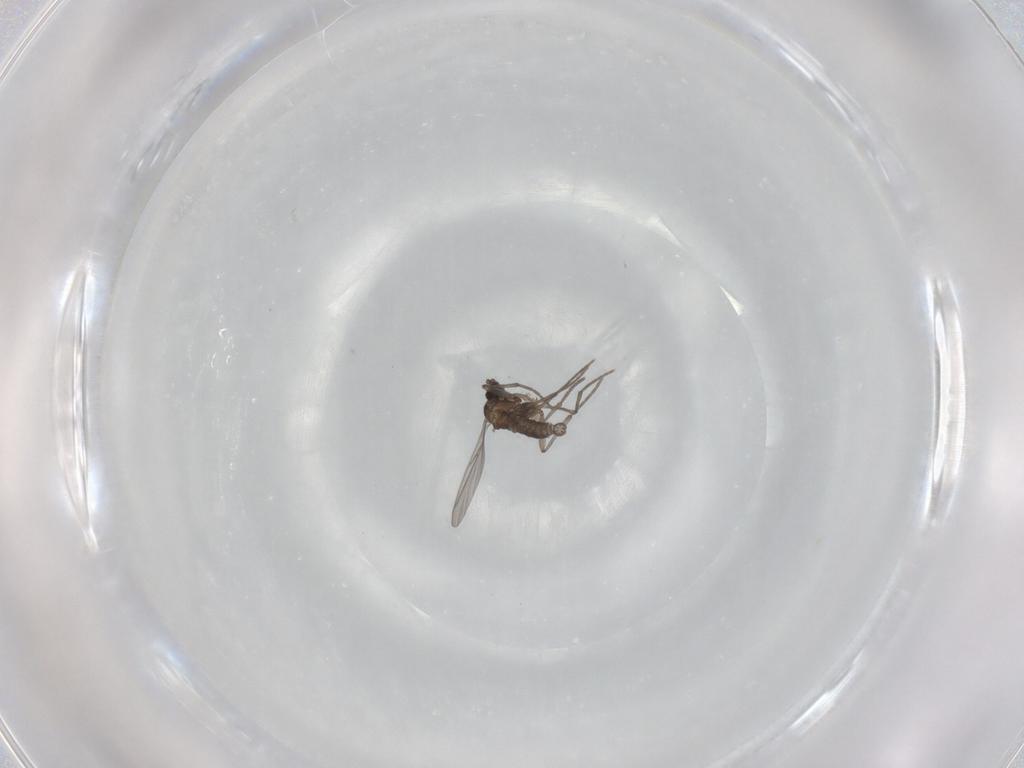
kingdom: Animalia
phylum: Arthropoda
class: Insecta
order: Diptera
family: Sciaridae
